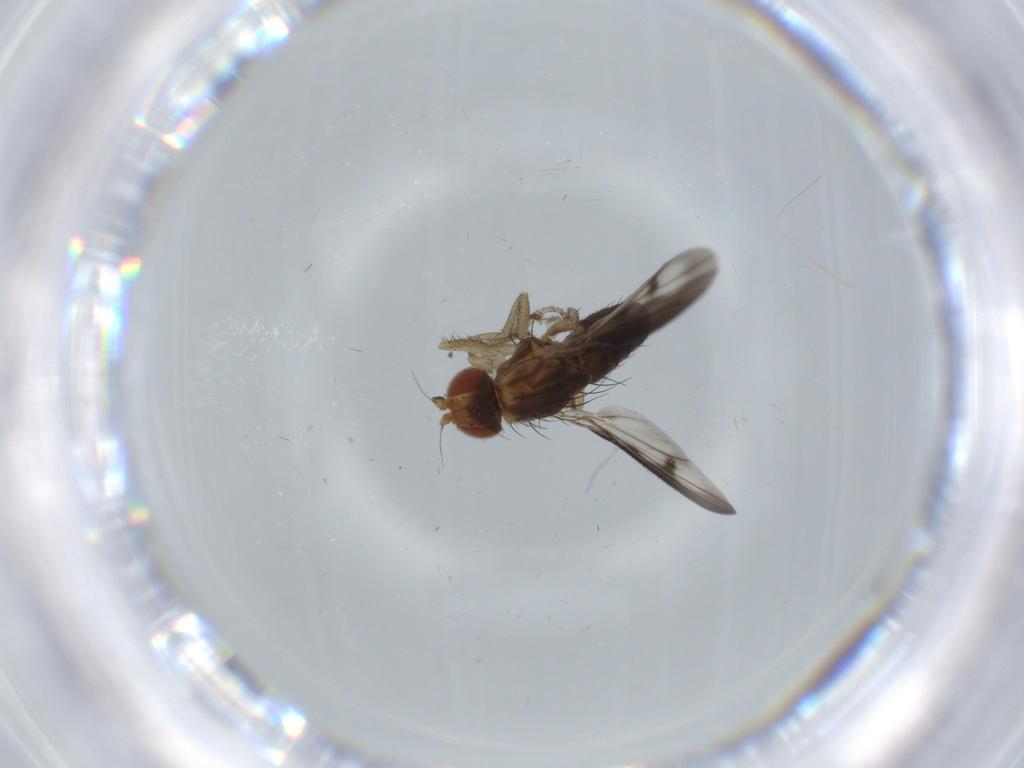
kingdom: Animalia
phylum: Arthropoda
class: Insecta
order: Diptera
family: Heleomyzidae
